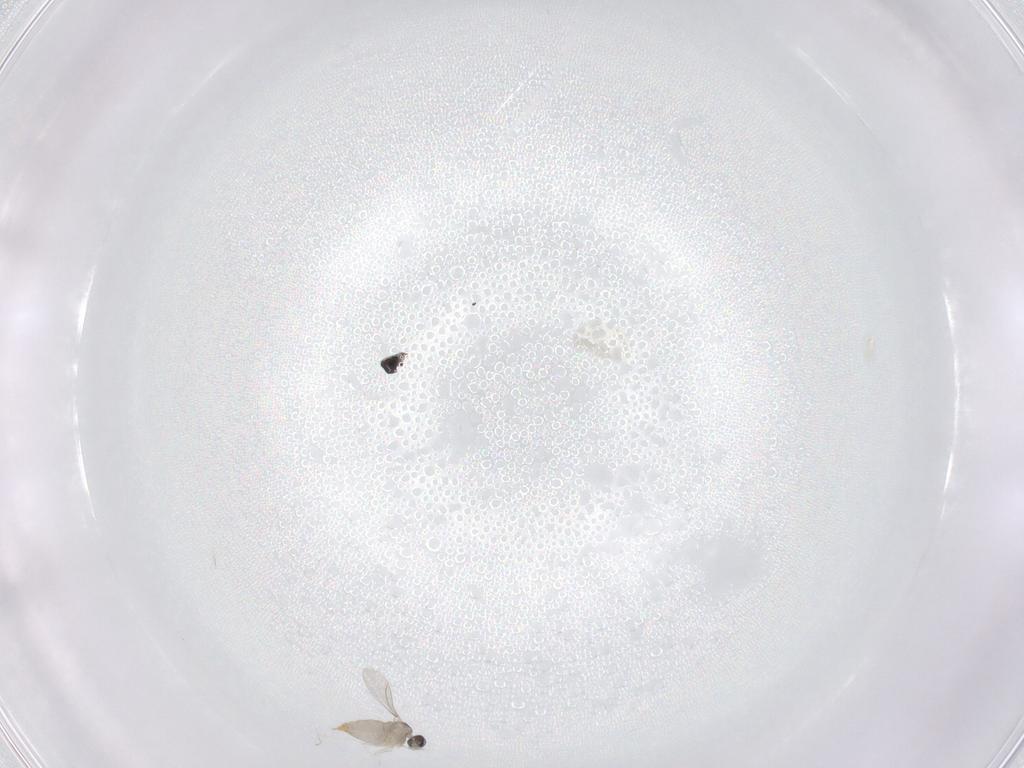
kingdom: Animalia
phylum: Arthropoda
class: Insecta
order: Diptera
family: Cecidomyiidae
